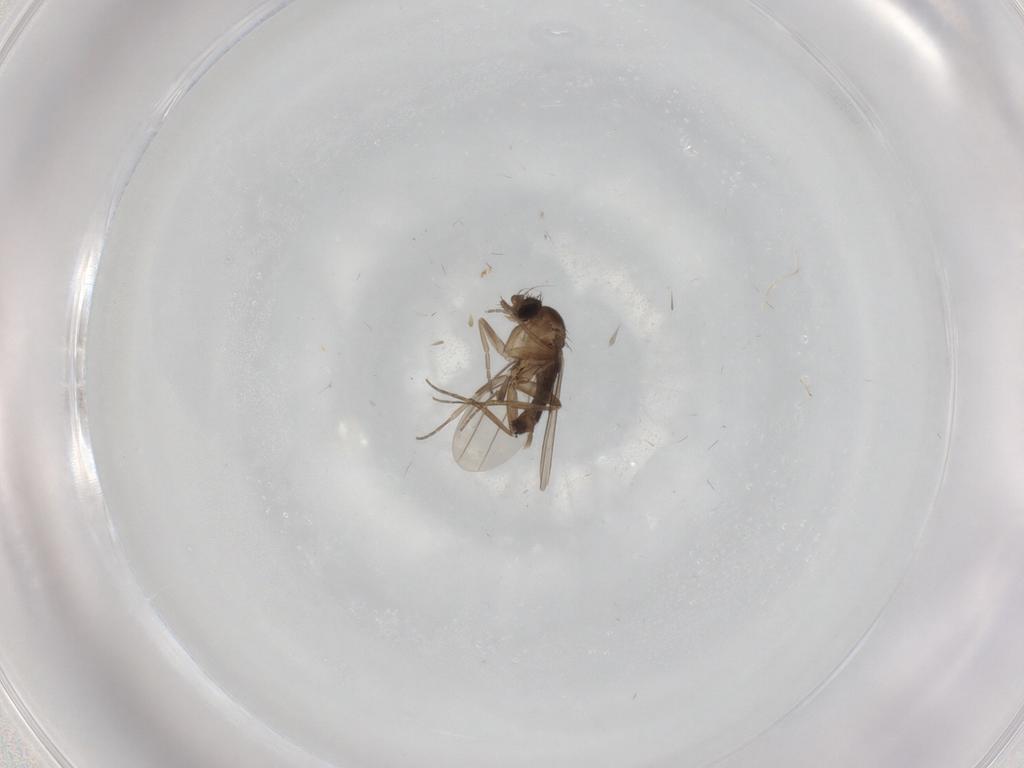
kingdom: Animalia
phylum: Arthropoda
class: Insecta
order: Diptera
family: Phoridae
